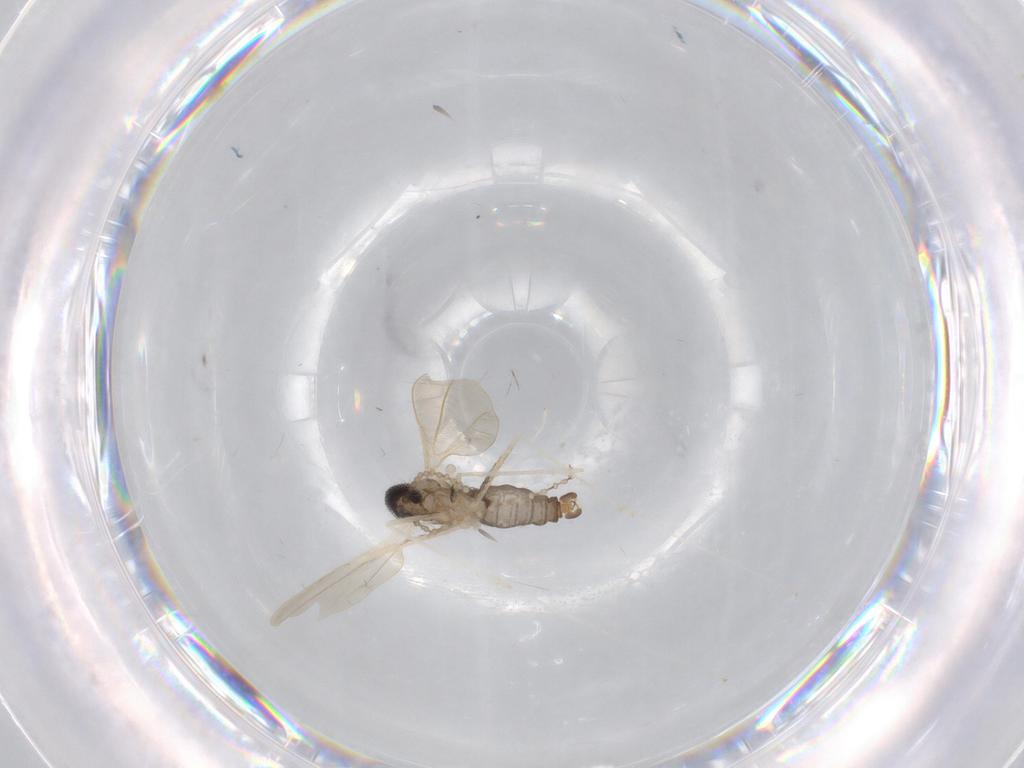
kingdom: Animalia
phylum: Arthropoda
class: Insecta
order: Diptera
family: Cecidomyiidae
